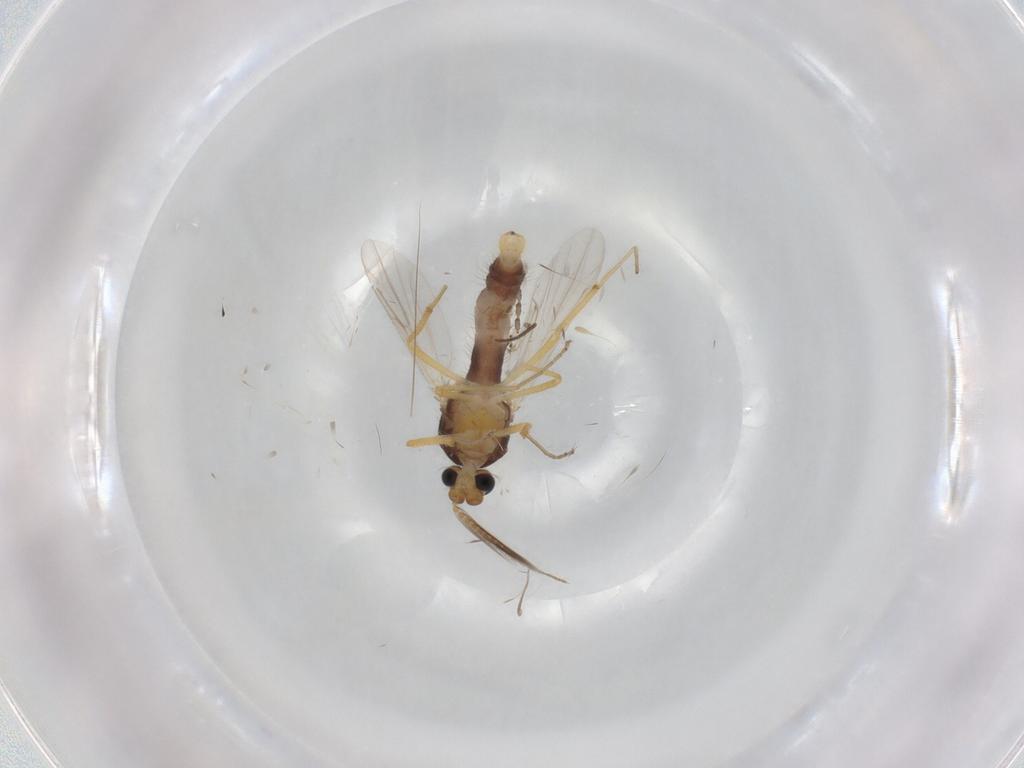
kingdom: Animalia
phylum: Arthropoda
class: Insecta
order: Diptera
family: Ceratopogonidae
